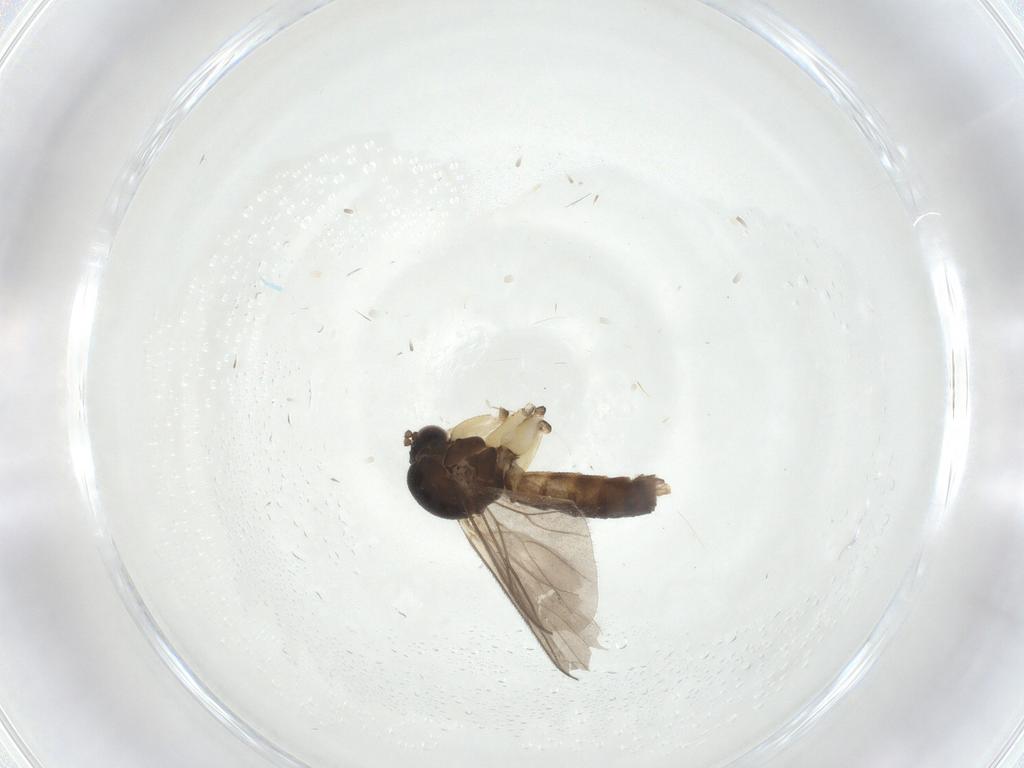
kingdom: Animalia
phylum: Arthropoda
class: Insecta
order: Diptera
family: Mycetophilidae
